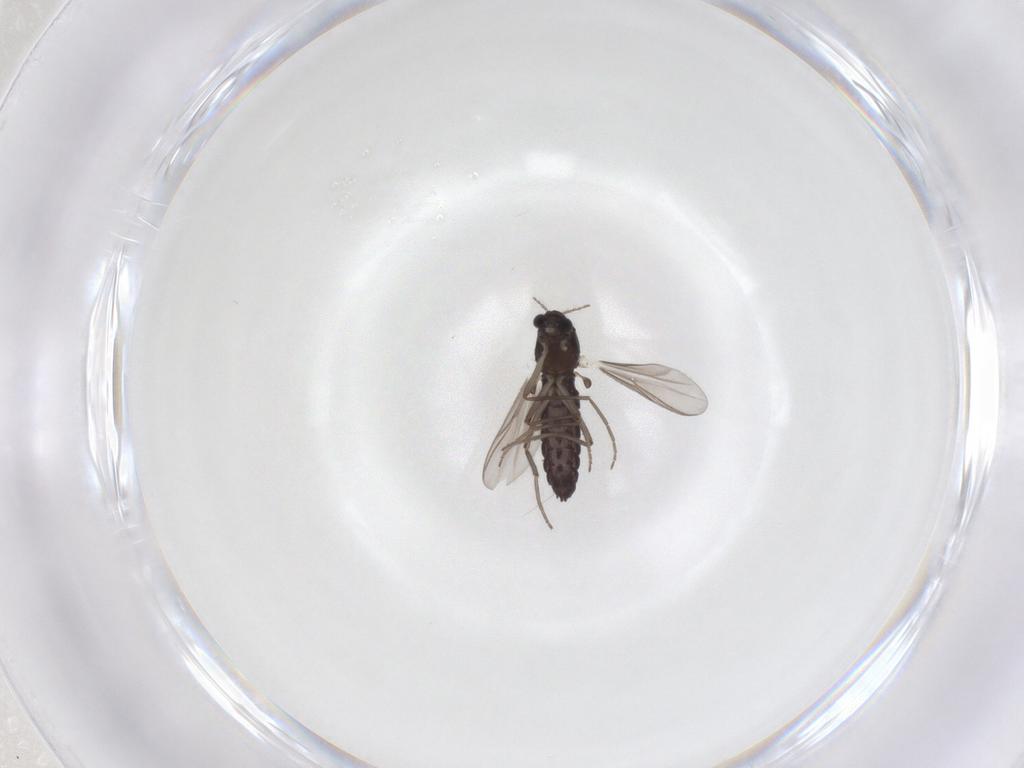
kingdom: Animalia
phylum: Arthropoda
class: Insecta
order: Diptera
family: Chironomidae
